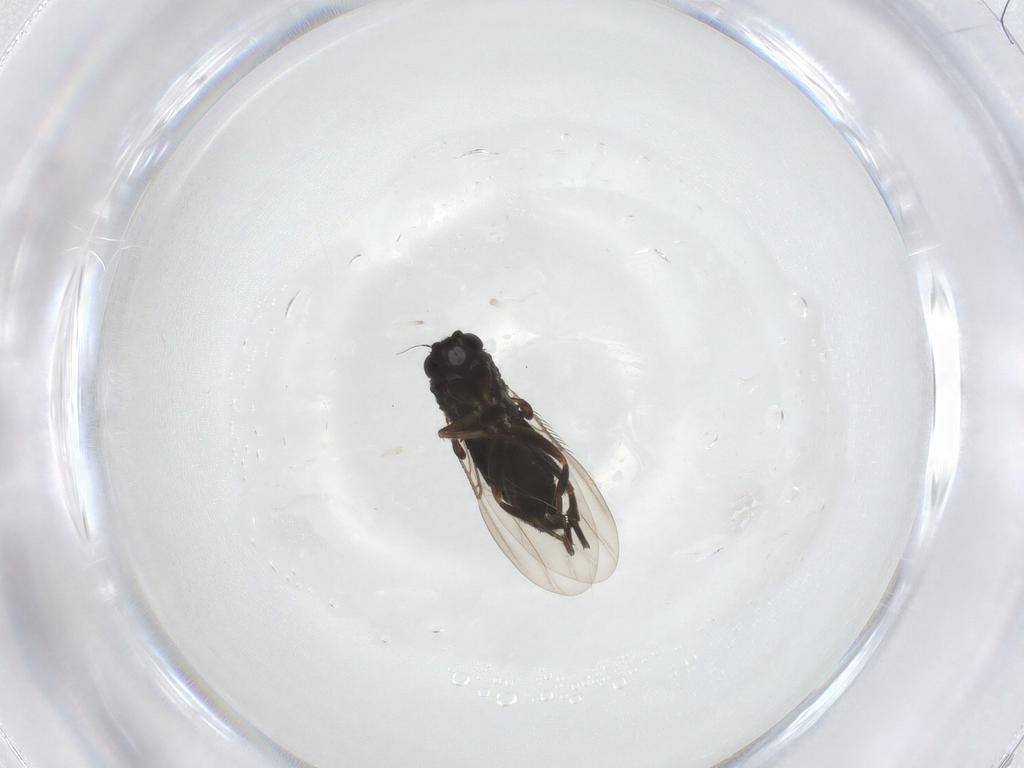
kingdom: Animalia
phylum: Arthropoda
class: Insecta
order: Diptera
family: Phoridae
